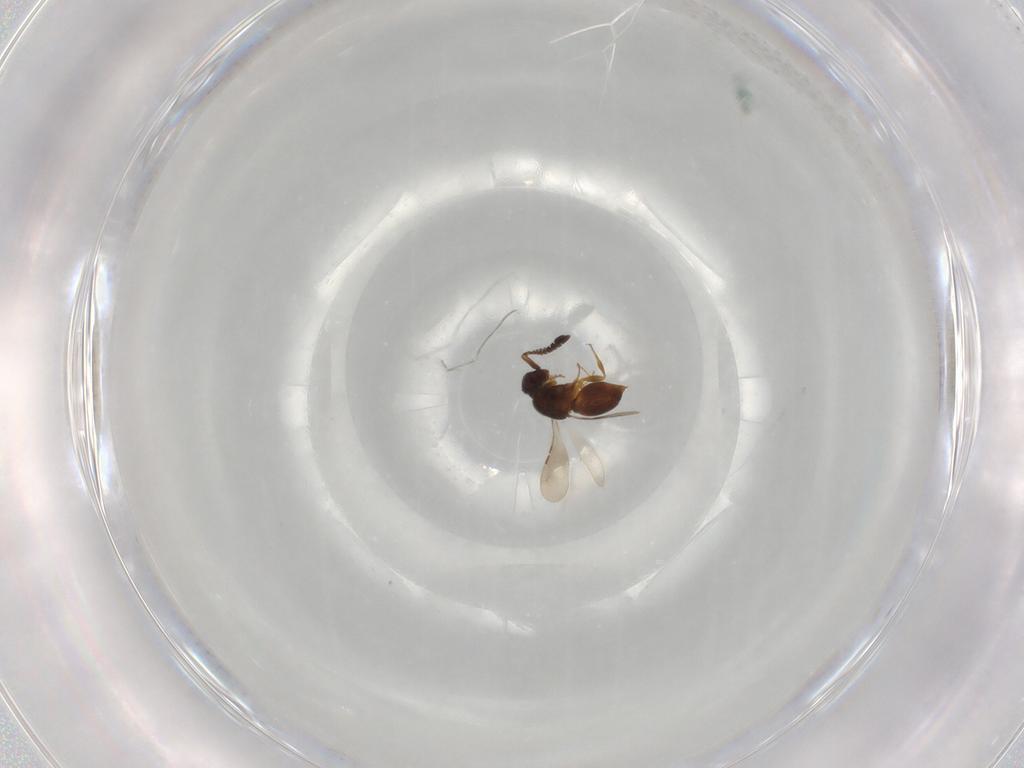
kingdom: Animalia
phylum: Arthropoda
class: Insecta
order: Hymenoptera
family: Ceraphronidae
